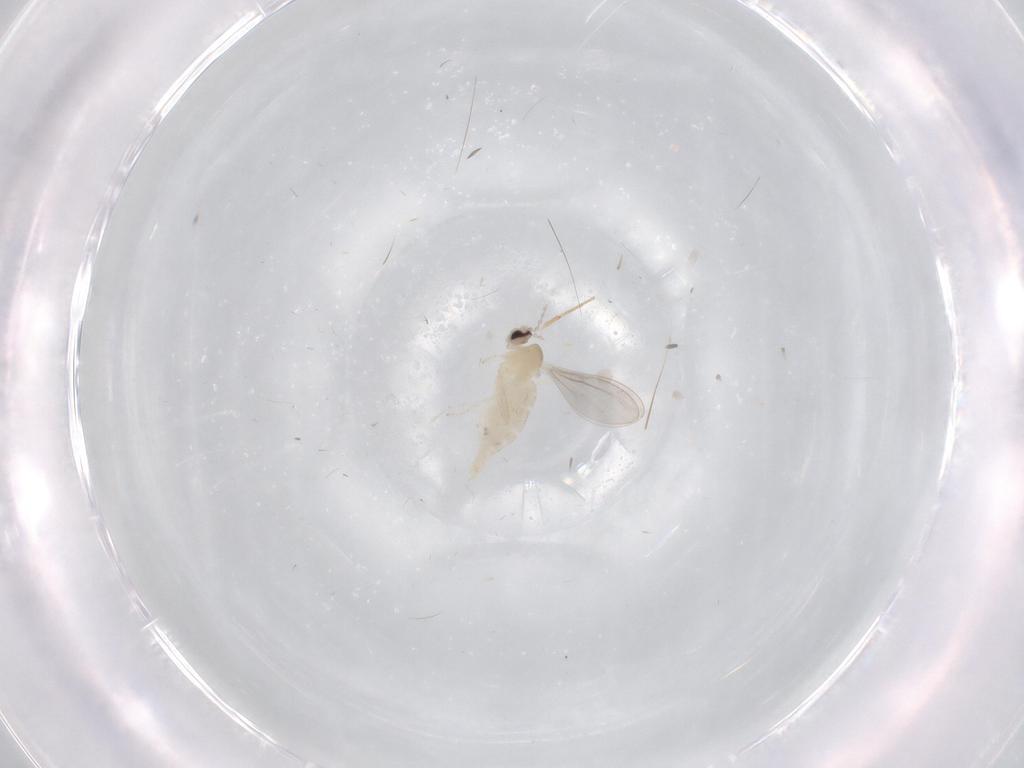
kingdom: Animalia
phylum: Arthropoda
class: Insecta
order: Diptera
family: Cecidomyiidae
